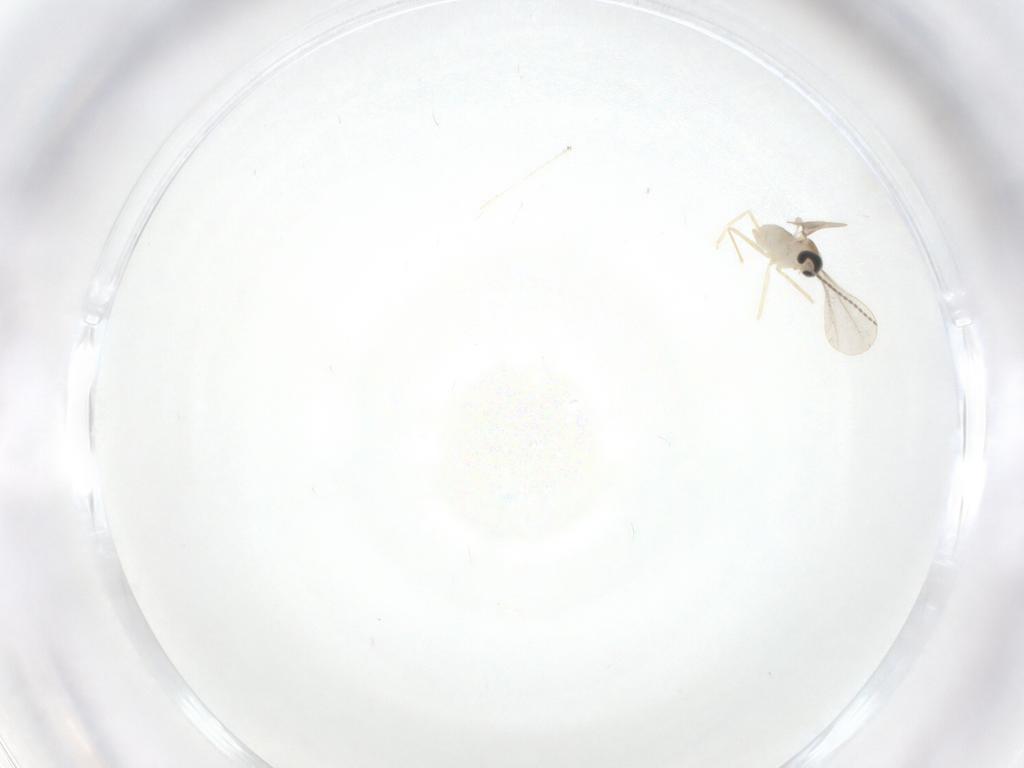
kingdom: Animalia
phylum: Arthropoda
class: Insecta
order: Diptera
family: Cecidomyiidae
